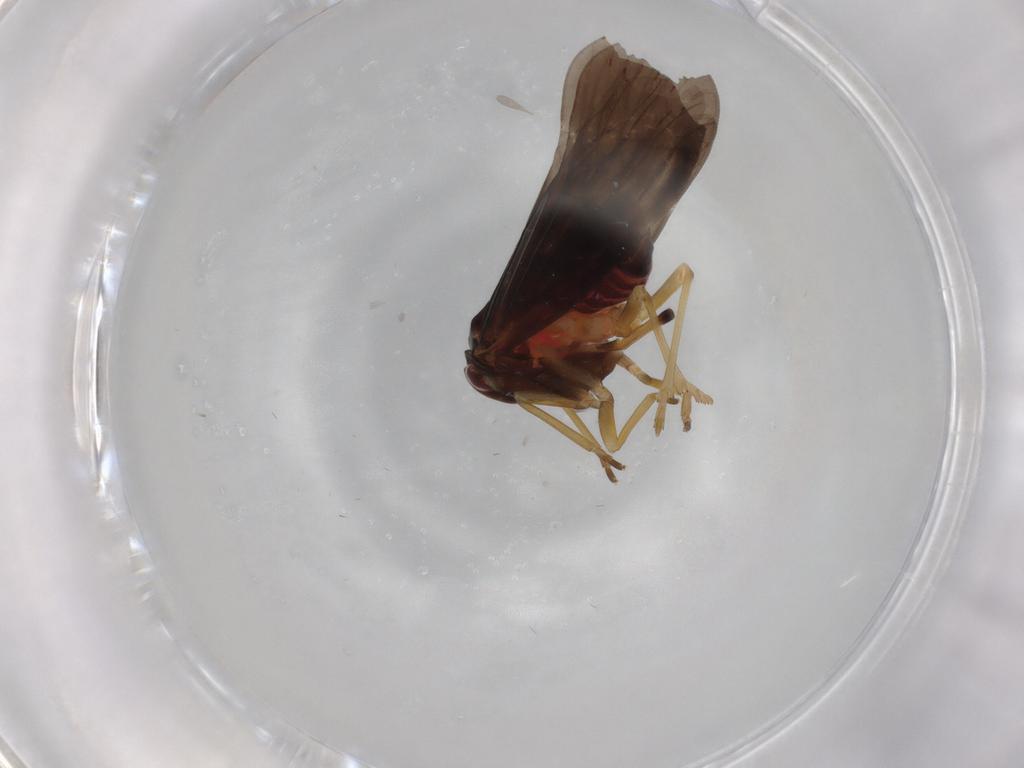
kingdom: Animalia
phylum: Arthropoda
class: Insecta
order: Hemiptera
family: Derbidae
